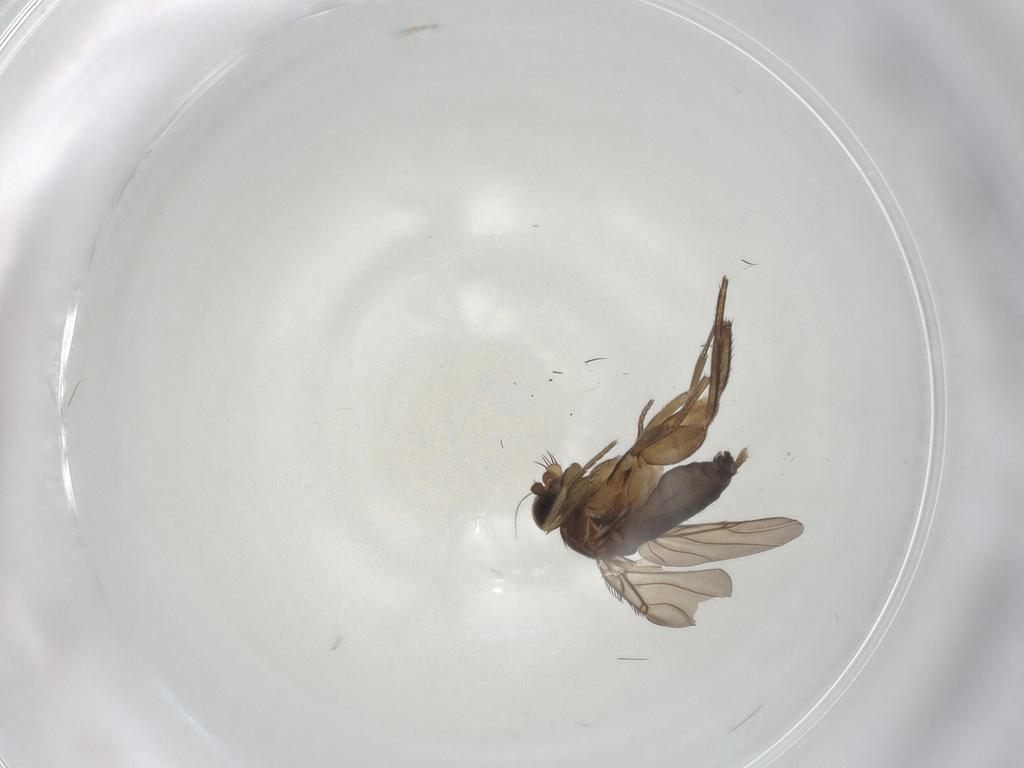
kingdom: Animalia
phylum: Arthropoda
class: Insecta
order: Diptera
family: Phoridae
